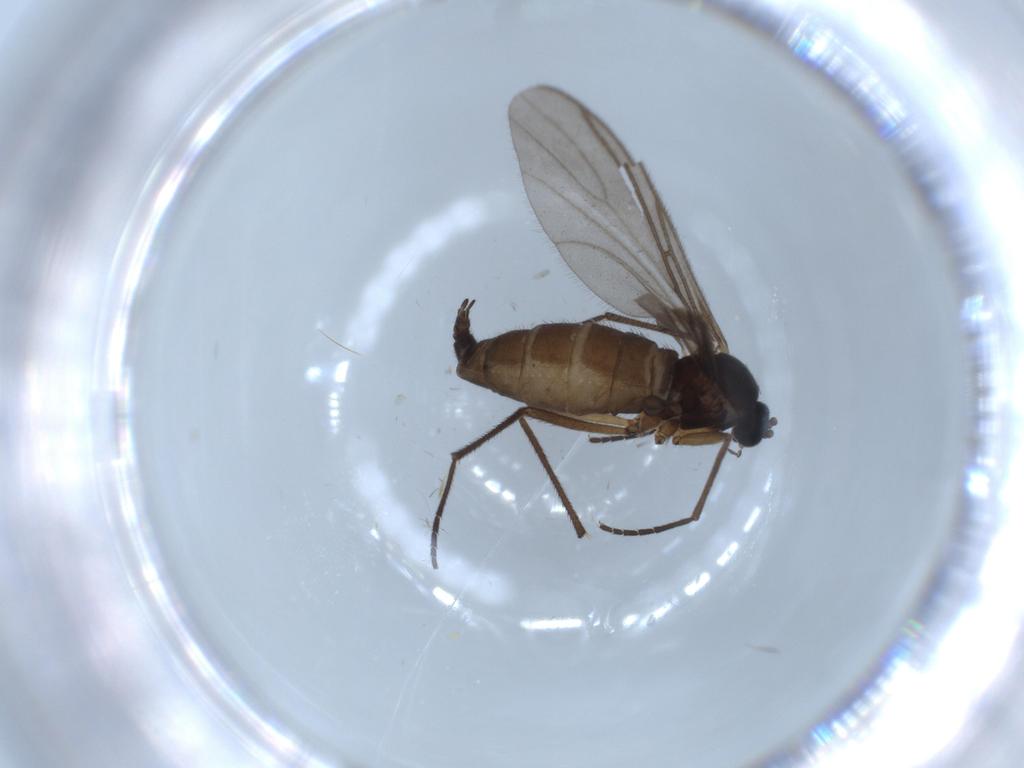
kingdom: Animalia
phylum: Arthropoda
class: Insecta
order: Diptera
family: Sciaridae
